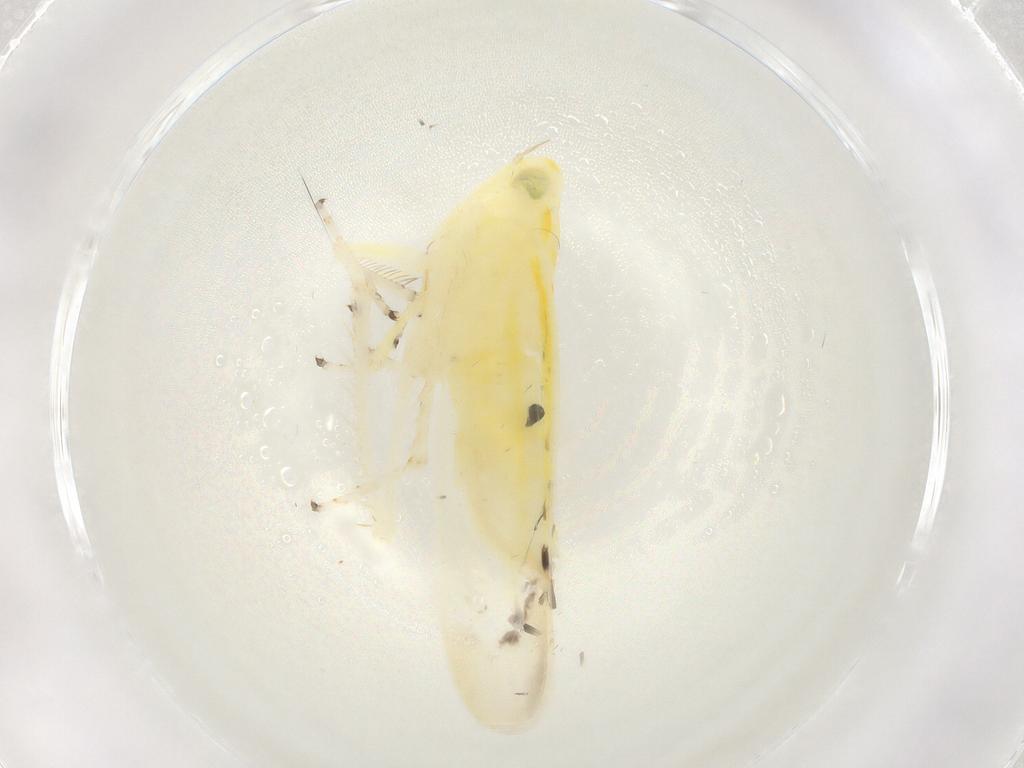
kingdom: Animalia
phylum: Arthropoda
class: Insecta
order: Hemiptera
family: Cicadellidae
